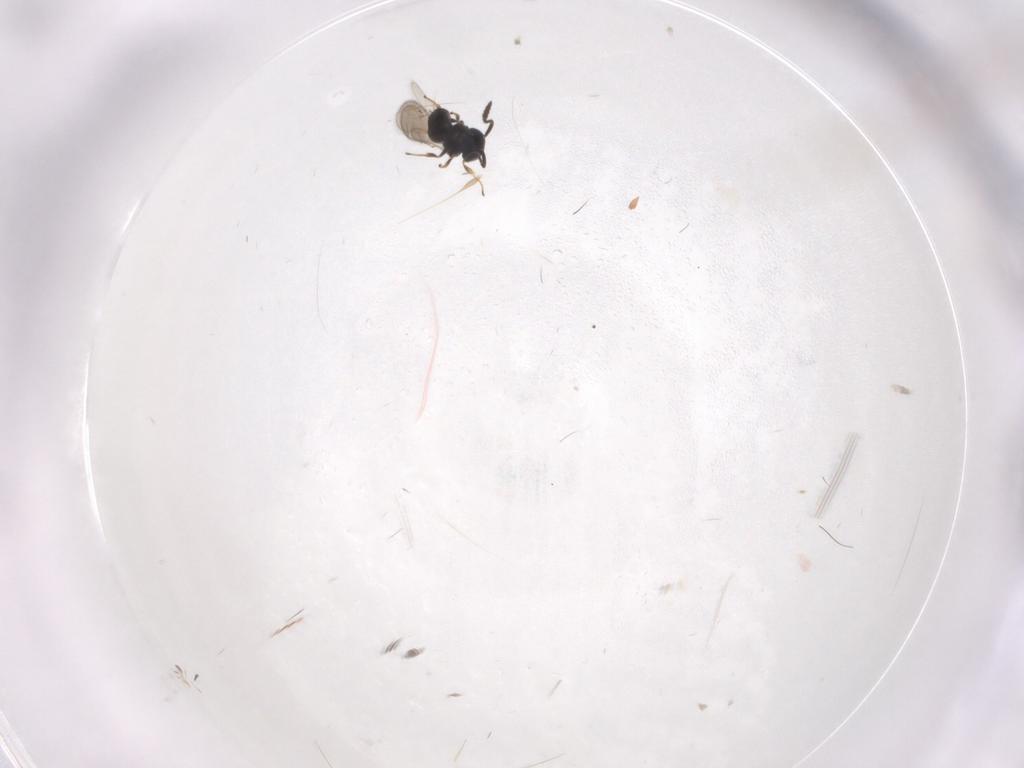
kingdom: Animalia
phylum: Arthropoda
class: Insecta
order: Hymenoptera
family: Scelionidae
